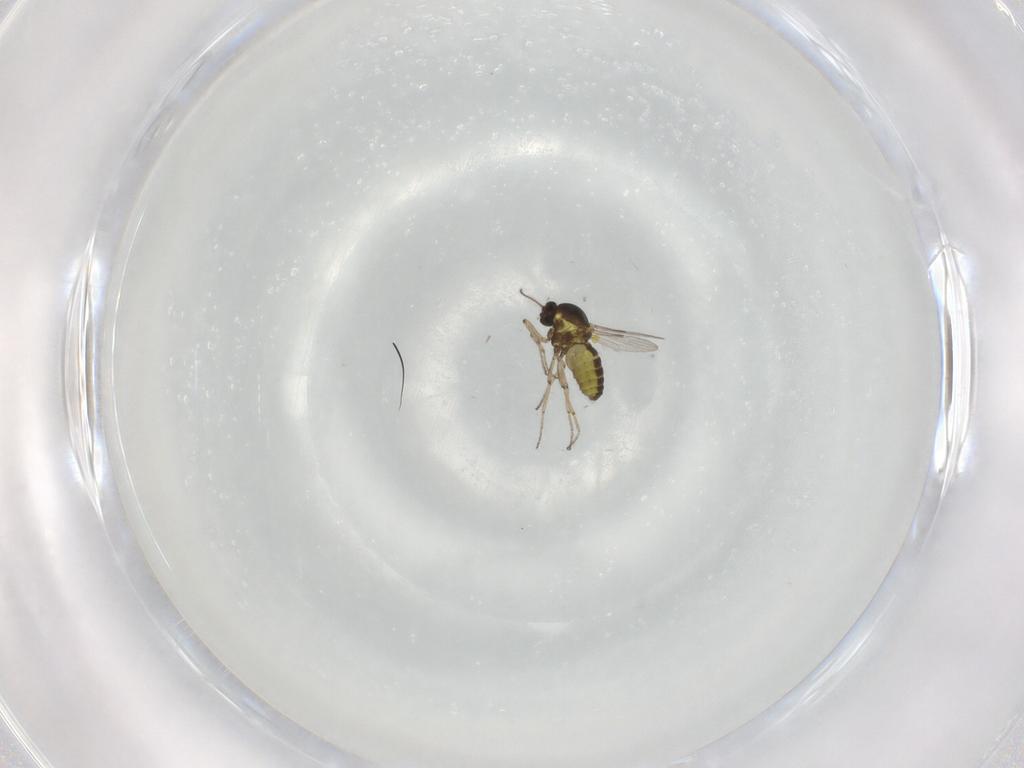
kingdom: Animalia
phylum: Arthropoda
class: Insecta
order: Diptera
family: Ceratopogonidae
